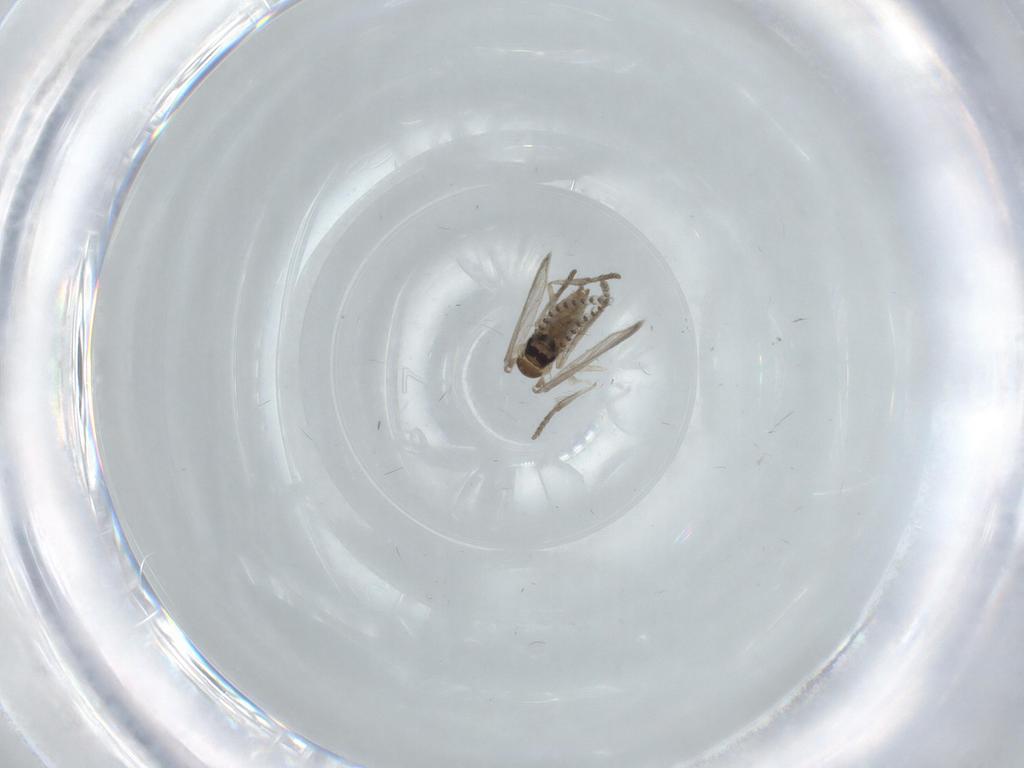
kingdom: Animalia
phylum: Arthropoda
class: Insecta
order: Diptera
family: Psychodidae
